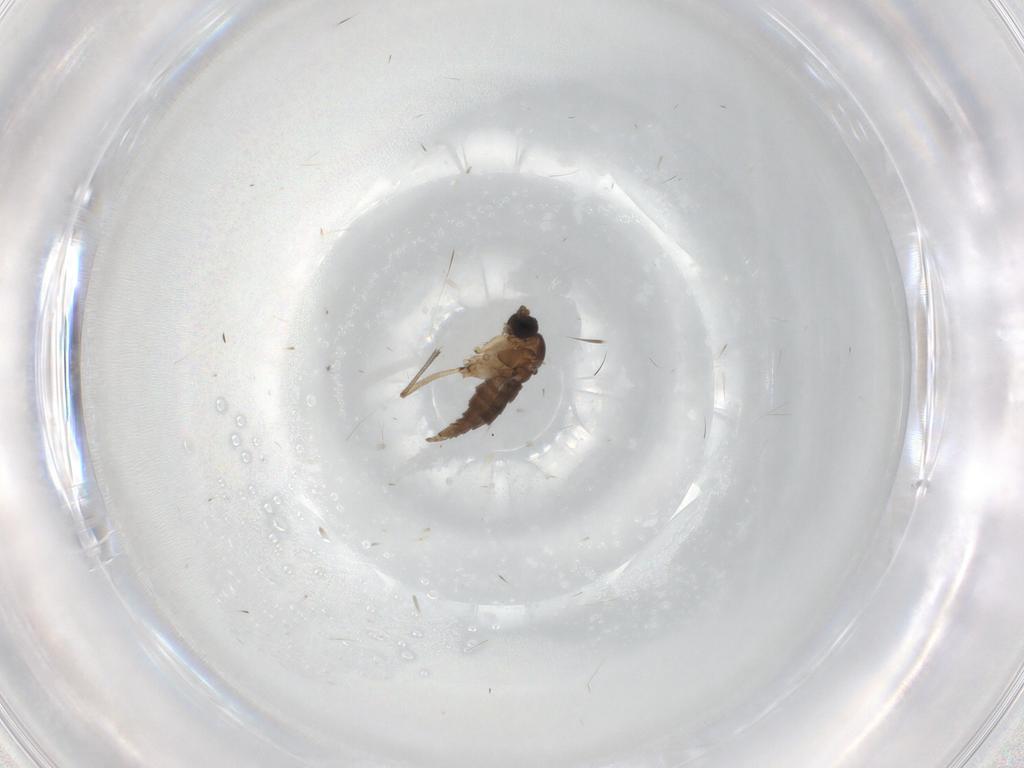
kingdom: Animalia
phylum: Arthropoda
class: Insecta
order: Diptera
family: Sciaridae
